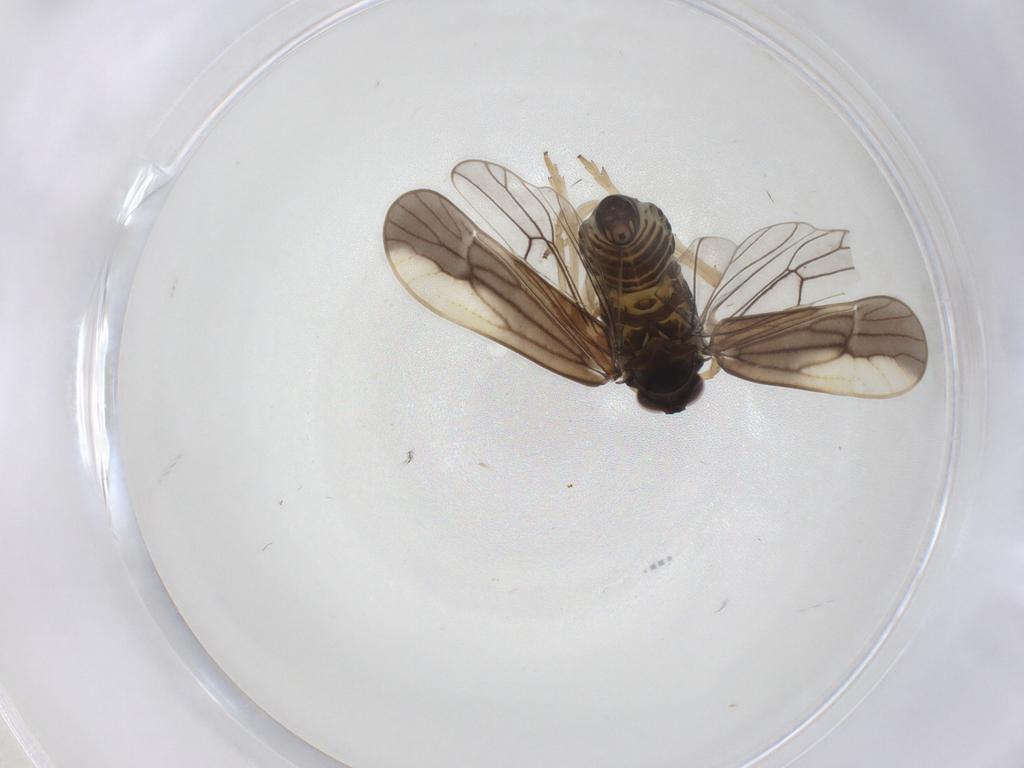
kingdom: Animalia
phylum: Arthropoda
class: Insecta
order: Hemiptera
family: Delphacidae
